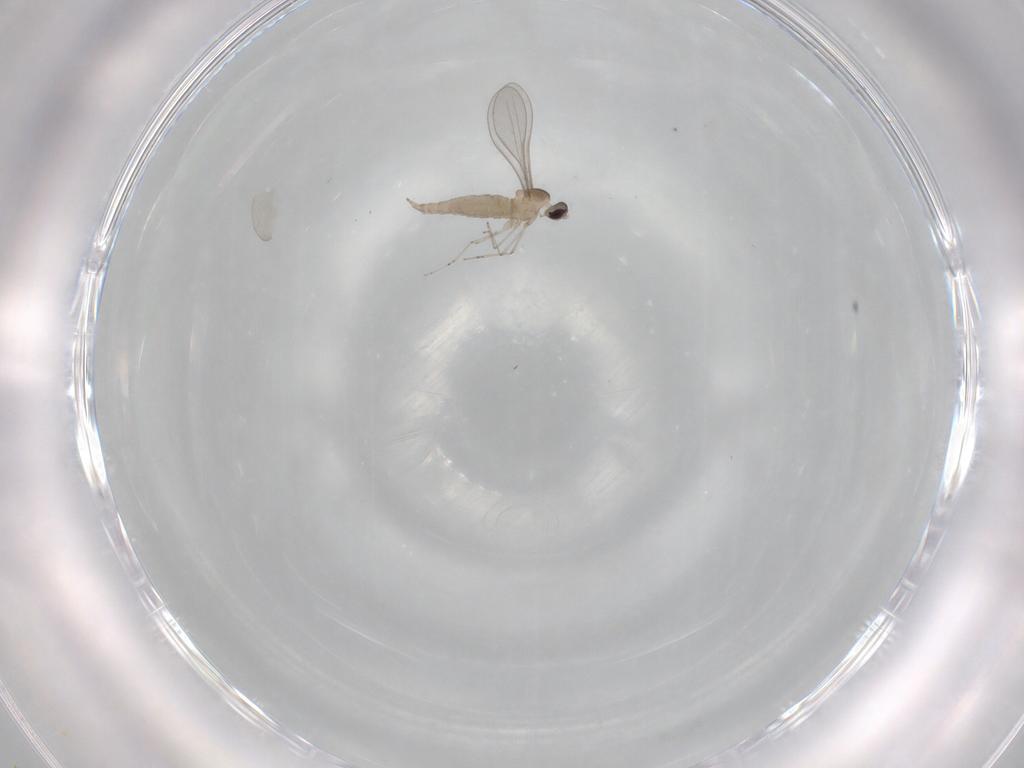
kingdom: Animalia
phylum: Arthropoda
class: Insecta
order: Diptera
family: Cecidomyiidae
